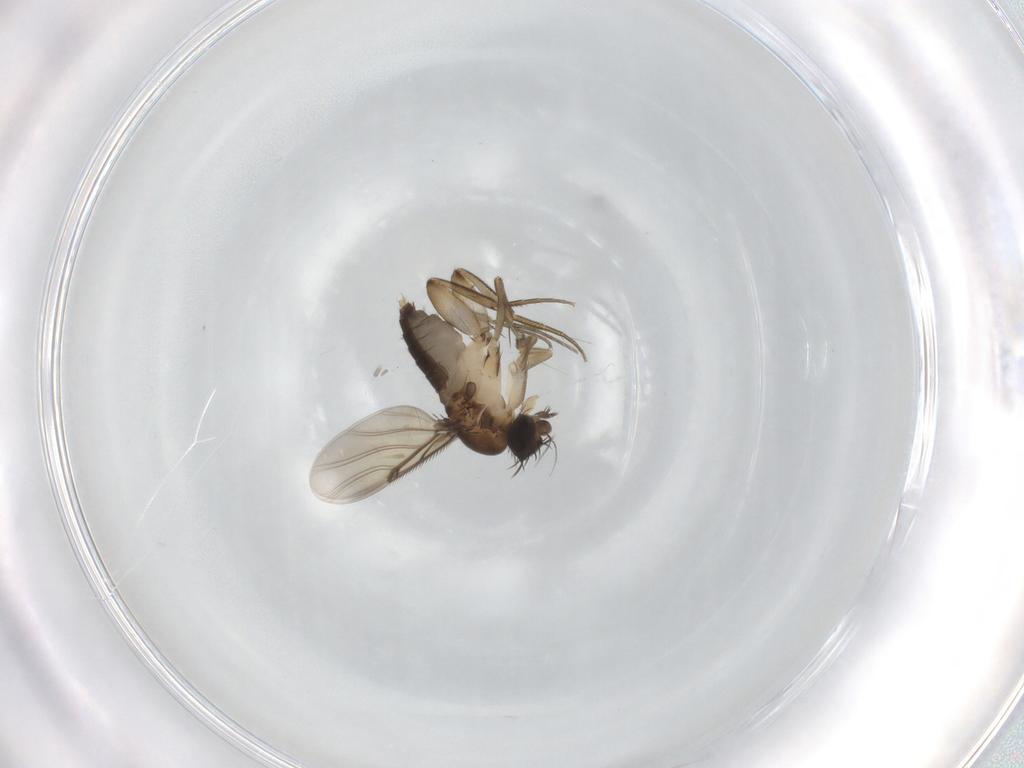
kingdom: Animalia
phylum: Arthropoda
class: Insecta
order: Diptera
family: Phoridae
